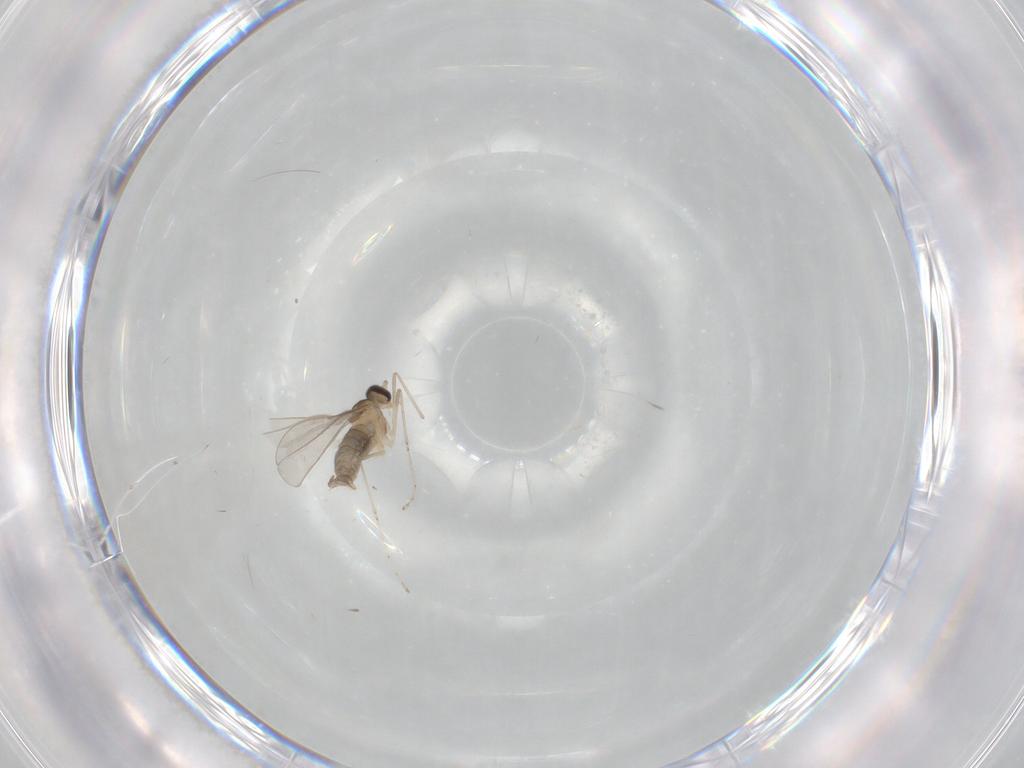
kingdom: Animalia
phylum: Arthropoda
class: Insecta
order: Diptera
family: Cecidomyiidae
